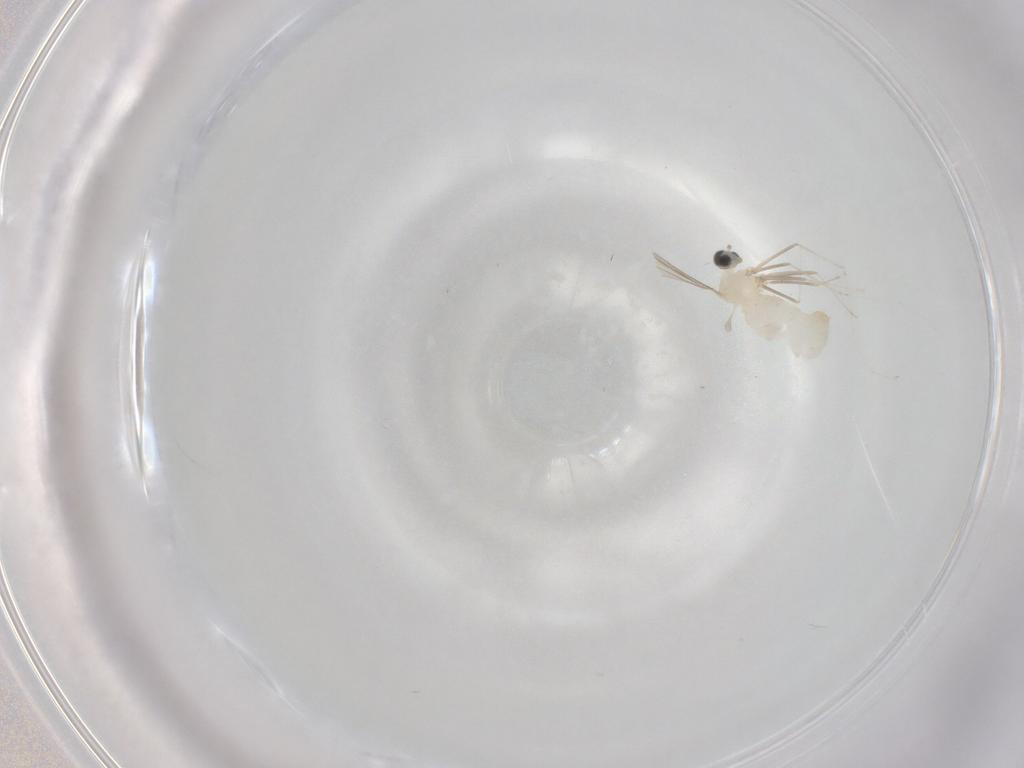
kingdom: Animalia
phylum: Arthropoda
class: Insecta
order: Diptera
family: Cecidomyiidae
